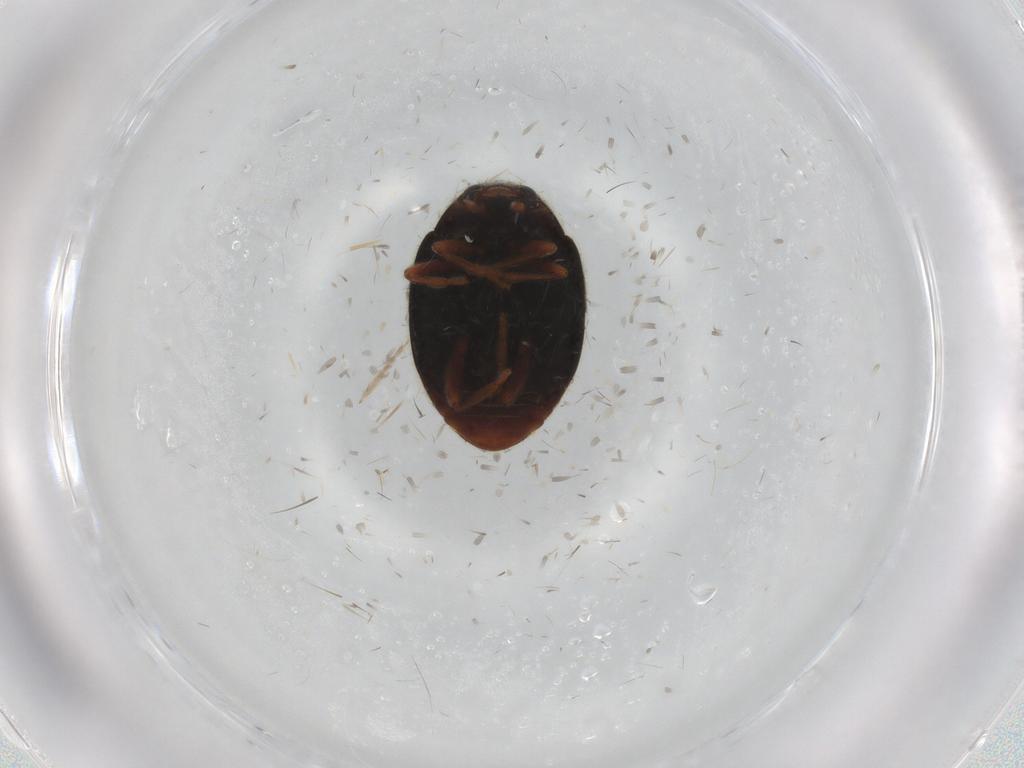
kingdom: Animalia
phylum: Arthropoda
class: Insecta
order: Coleoptera
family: Coccinellidae
